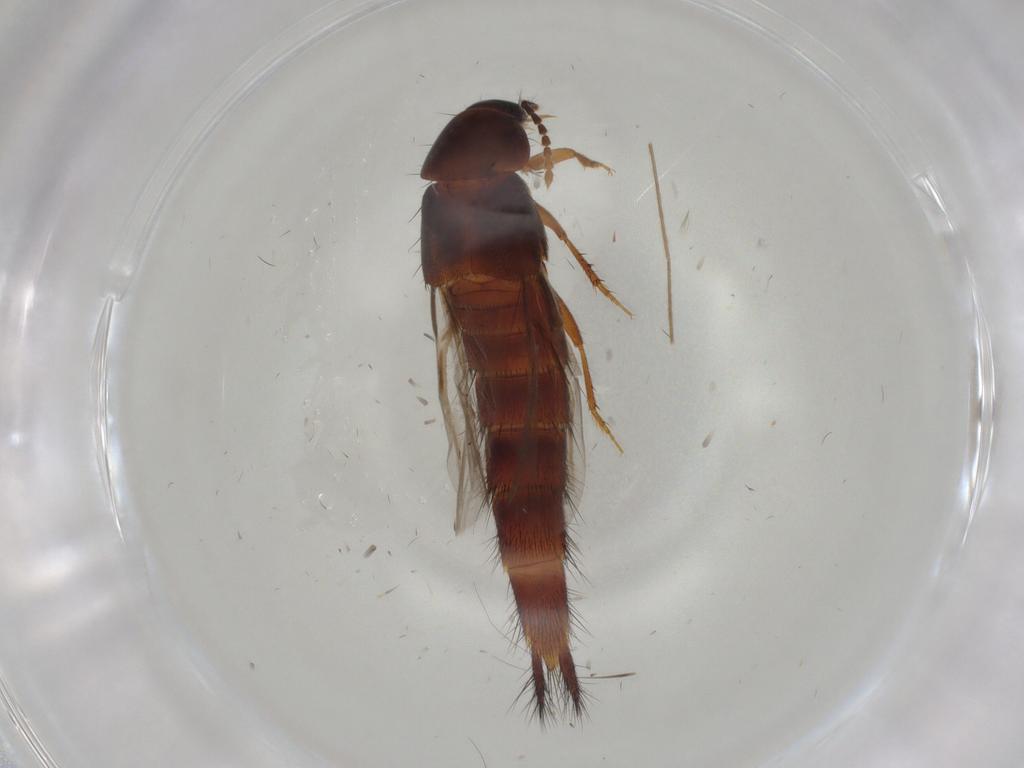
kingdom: Animalia
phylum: Arthropoda
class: Insecta
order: Coleoptera
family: Staphylinidae
